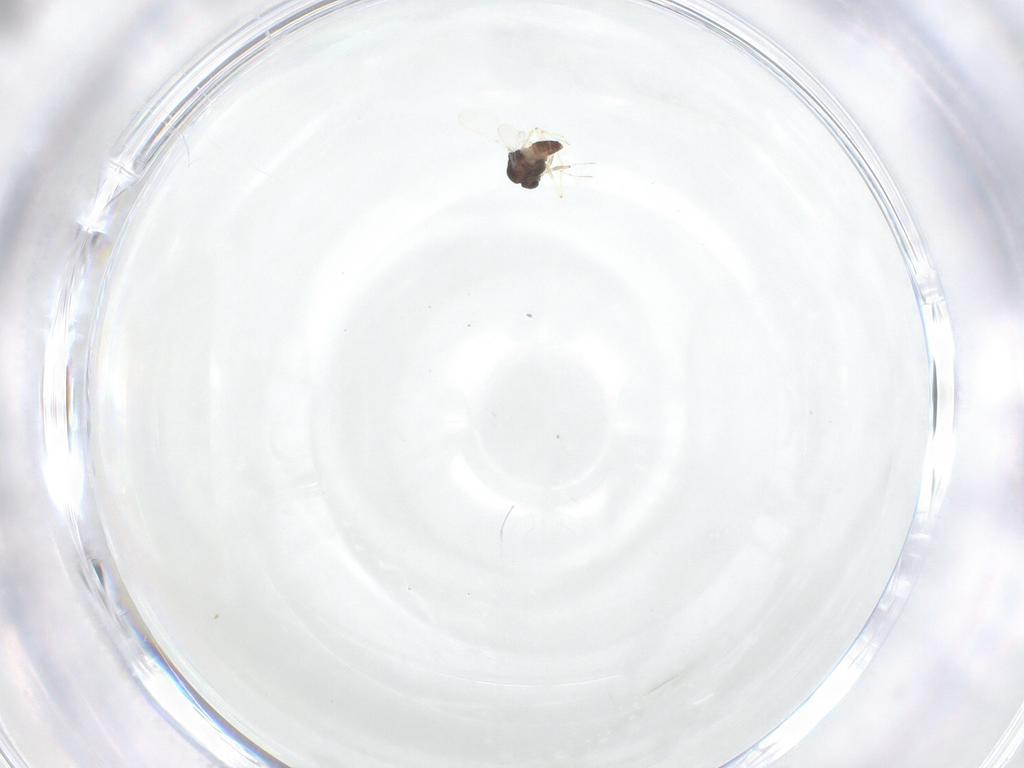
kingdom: Animalia
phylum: Arthropoda
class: Insecta
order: Diptera
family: Chironomidae
